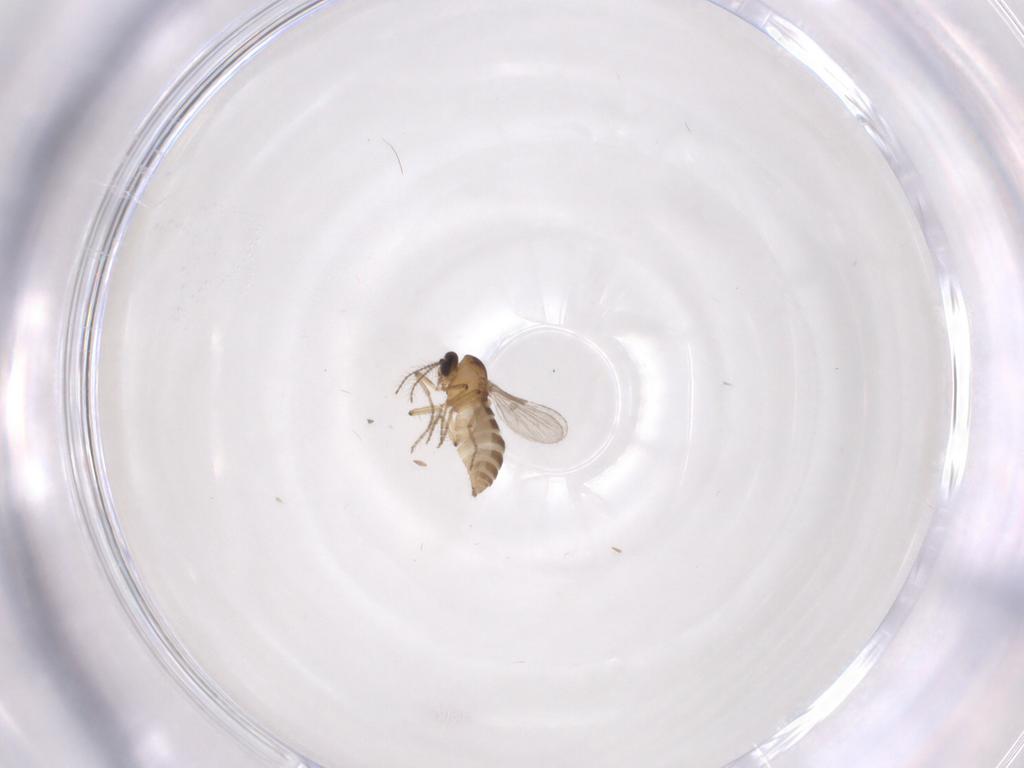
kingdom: Animalia
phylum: Arthropoda
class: Insecta
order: Diptera
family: Ceratopogonidae
